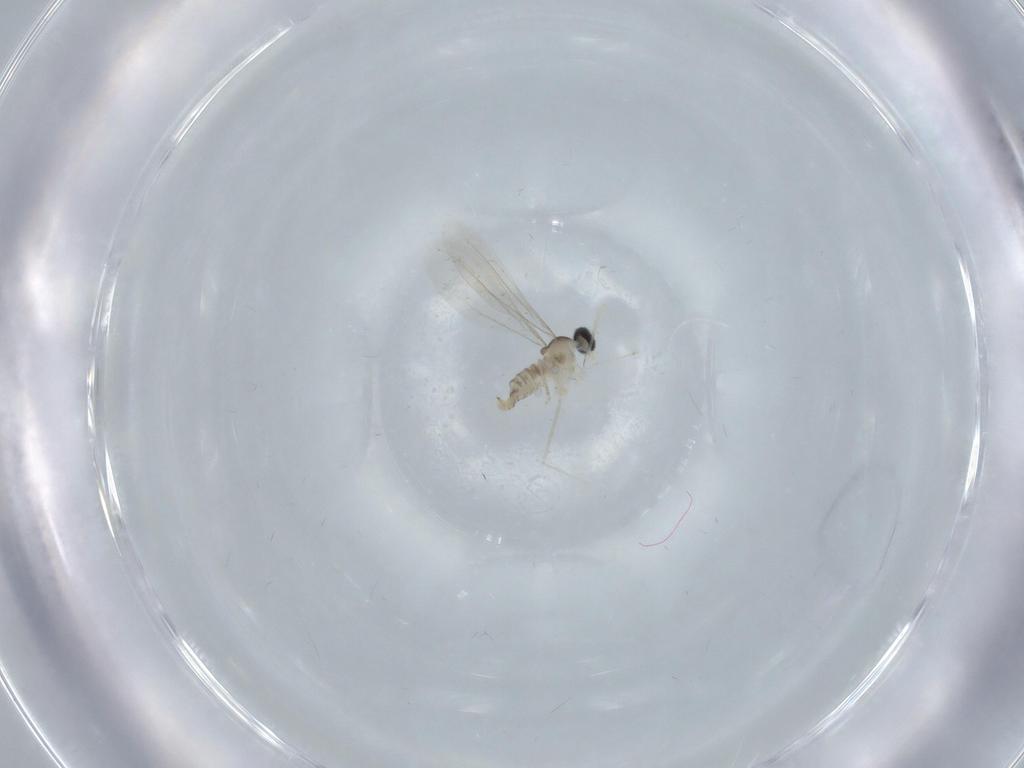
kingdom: Animalia
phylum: Arthropoda
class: Insecta
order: Diptera
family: Cecidomyiidae
